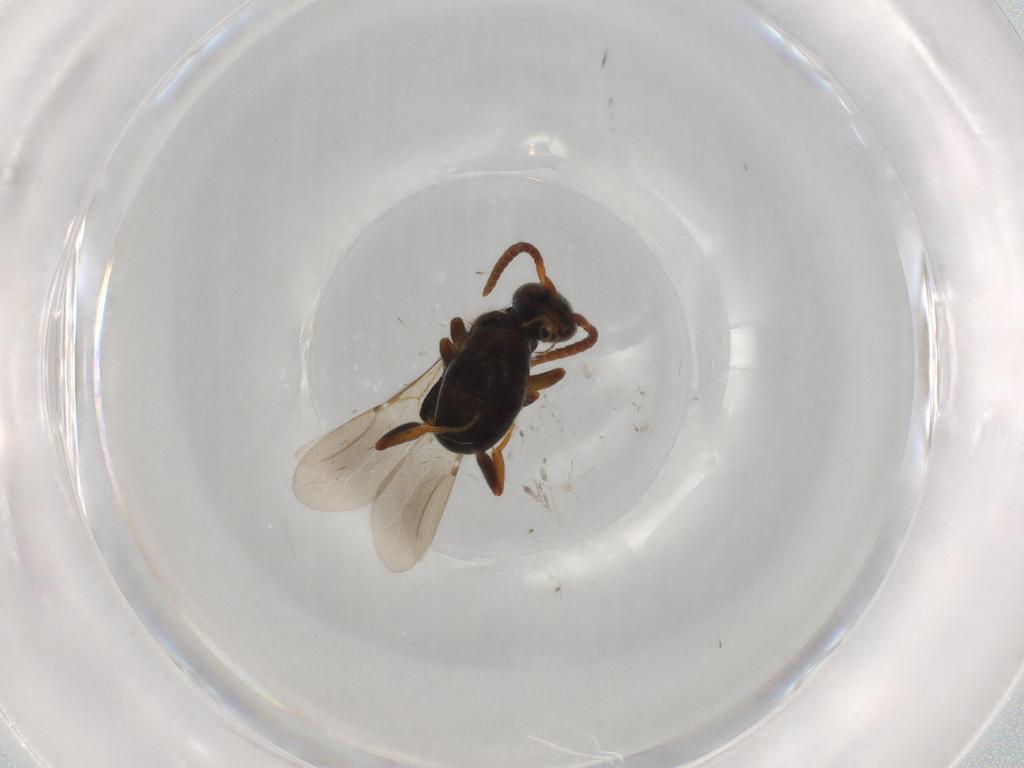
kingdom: Animalia
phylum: Arthropoda
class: Insecta
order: Hymenoptera
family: Bethylidae
